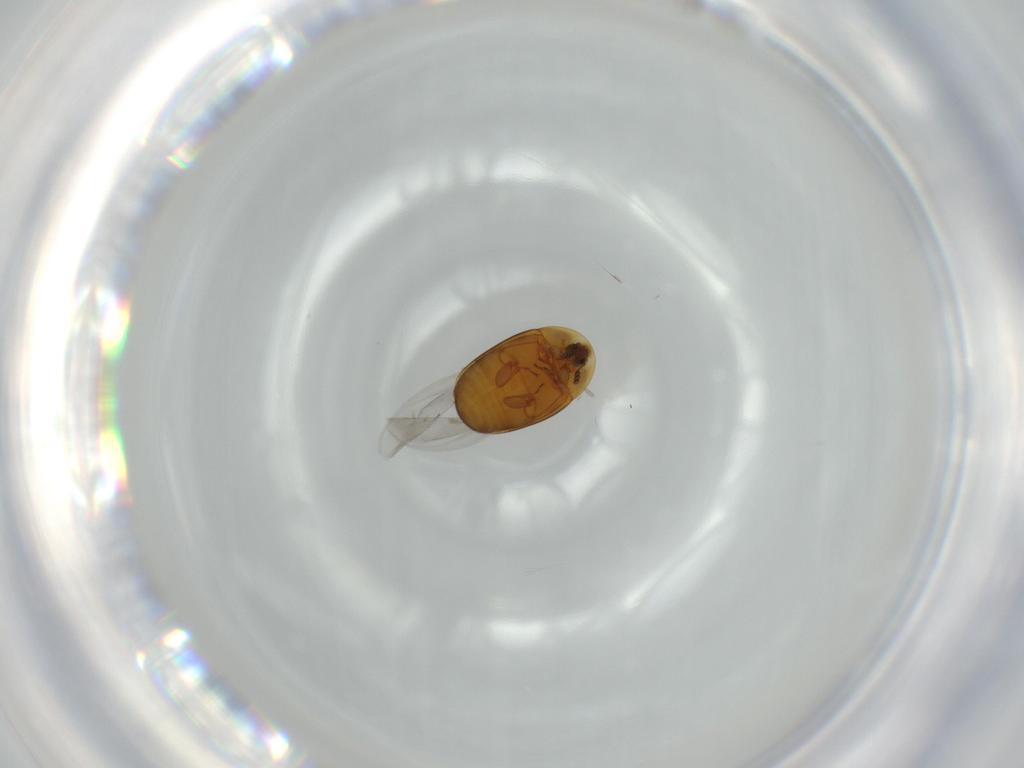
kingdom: Animalia
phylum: Arthropoda
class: Insecta
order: Coleoptera
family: Corylophidae
